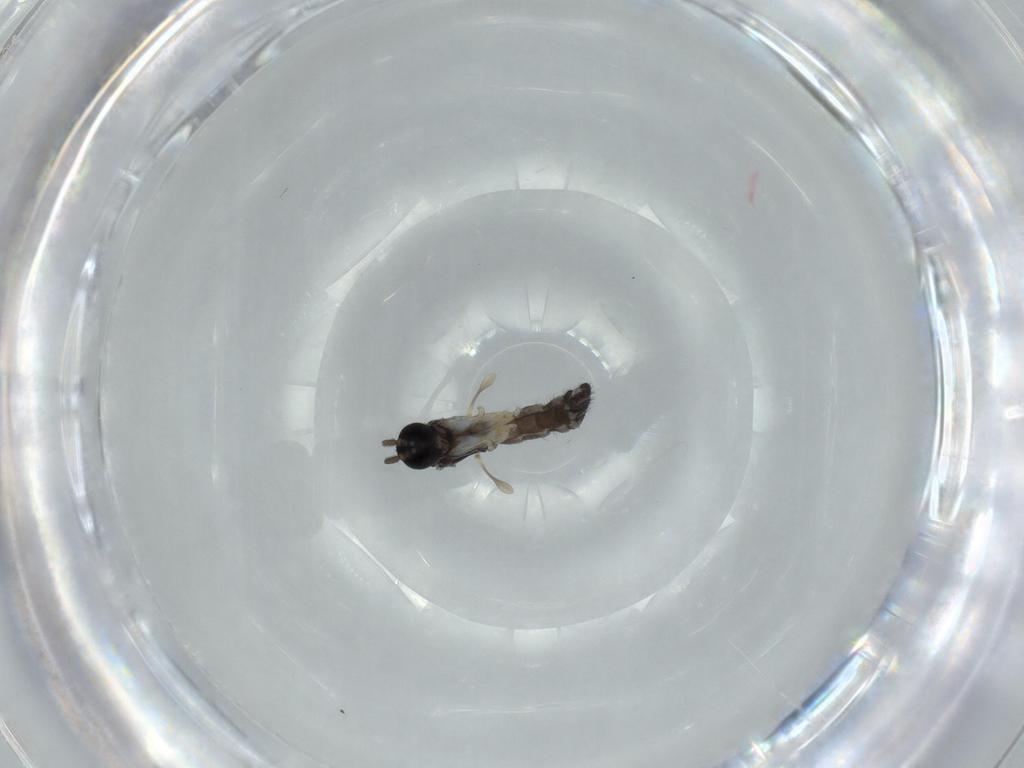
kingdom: Animalia
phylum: Arthropoda
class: Insecta
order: Diptera
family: Sciaridae
